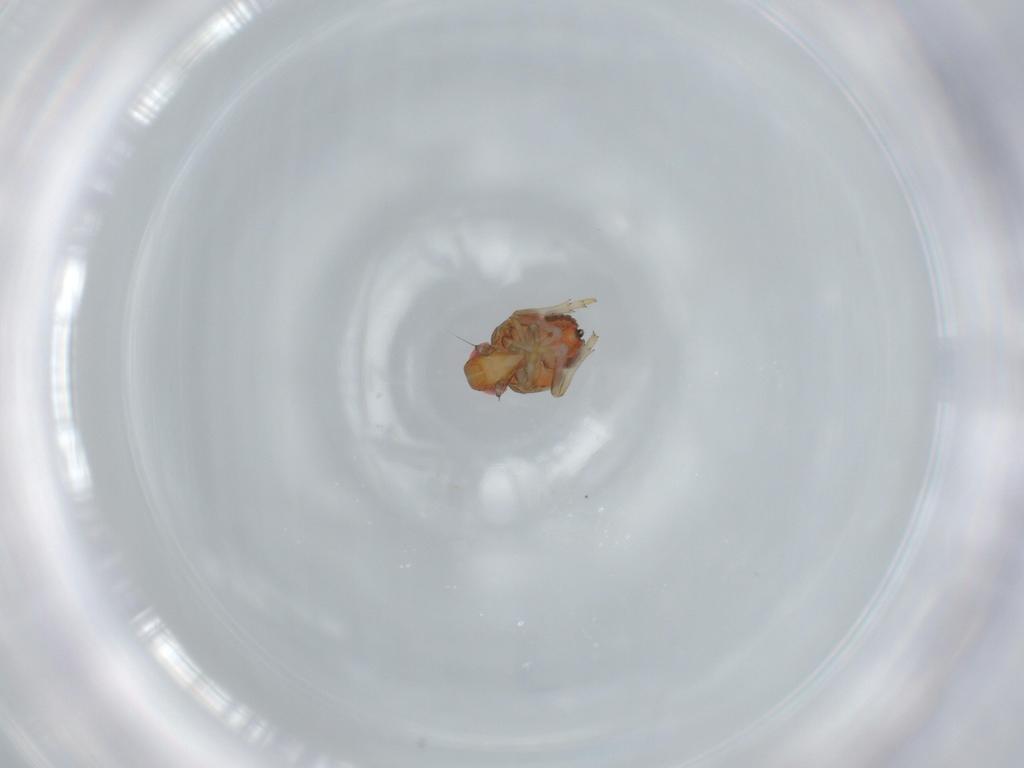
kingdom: Animalia
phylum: Arthropoda
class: Insecta
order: Hemiptera
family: Issidae
